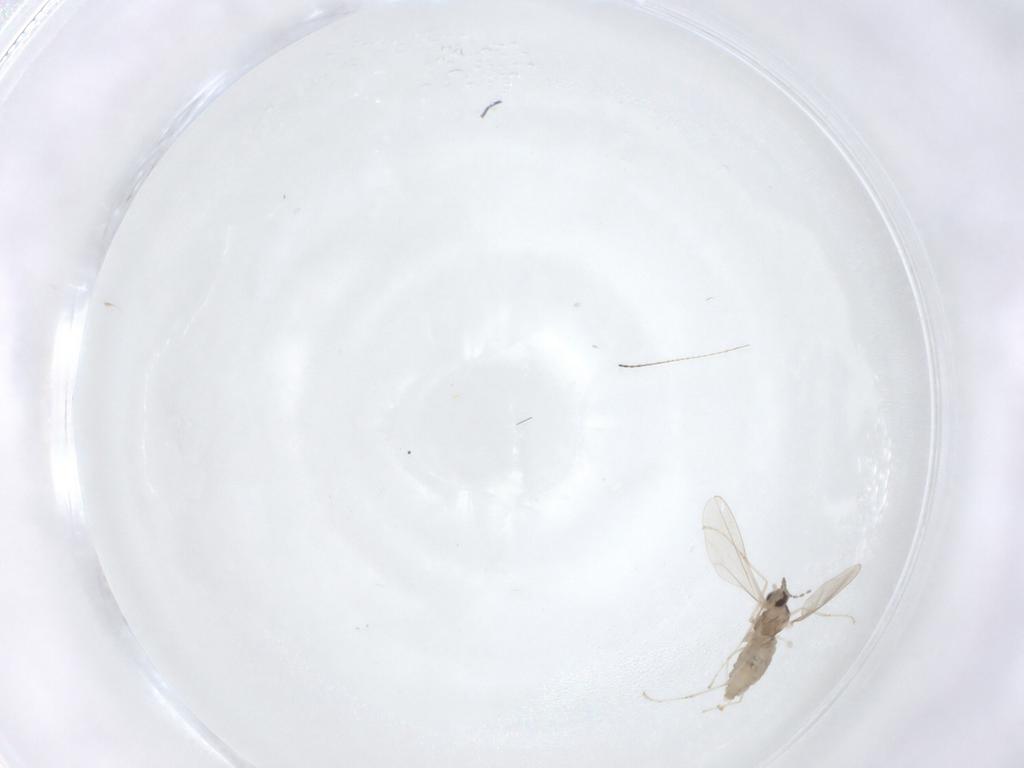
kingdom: Animalia
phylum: Arthropoda
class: Insecta
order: Diptera
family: Cecidomyiidae
